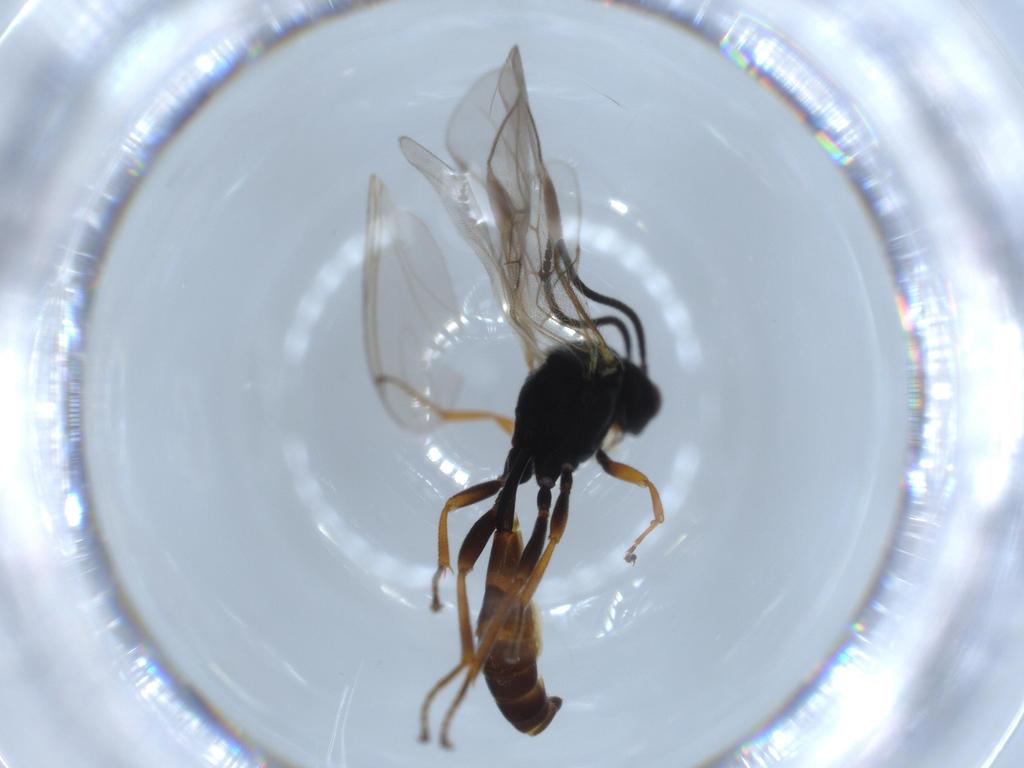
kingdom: Animalia
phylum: Arthropoda
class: Insecta
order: Hymenoptera
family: Ichneumonidae
